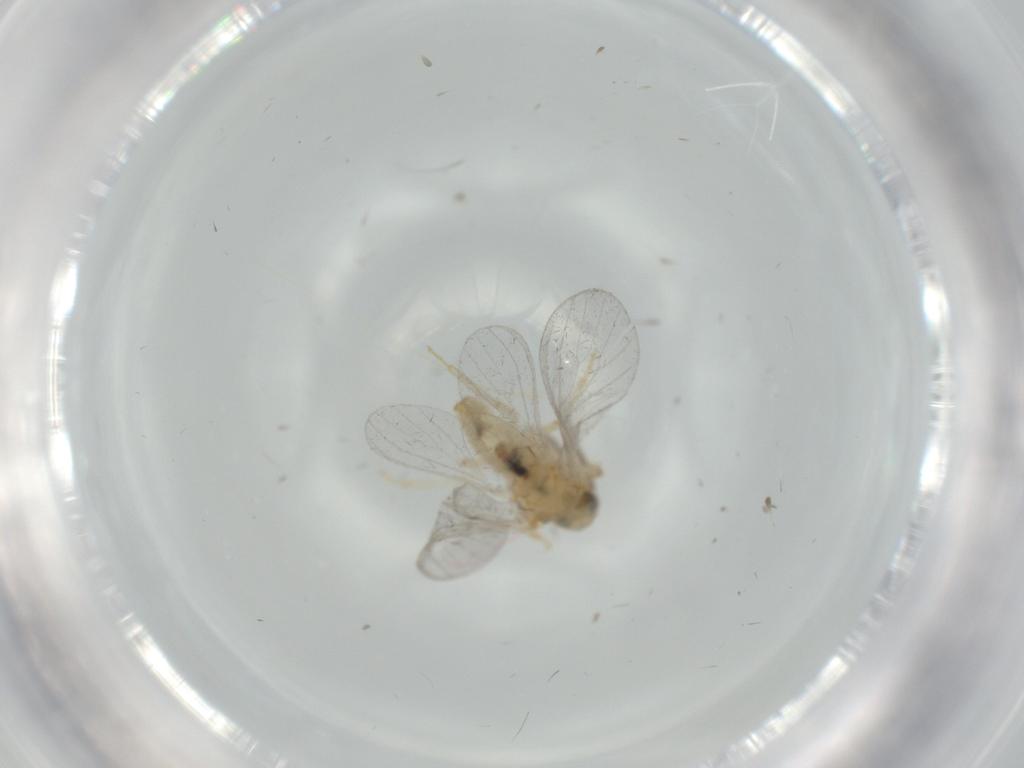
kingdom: Animalia
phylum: Arthropoda
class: Insecta
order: Neuroptera
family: Coniopterygidae
